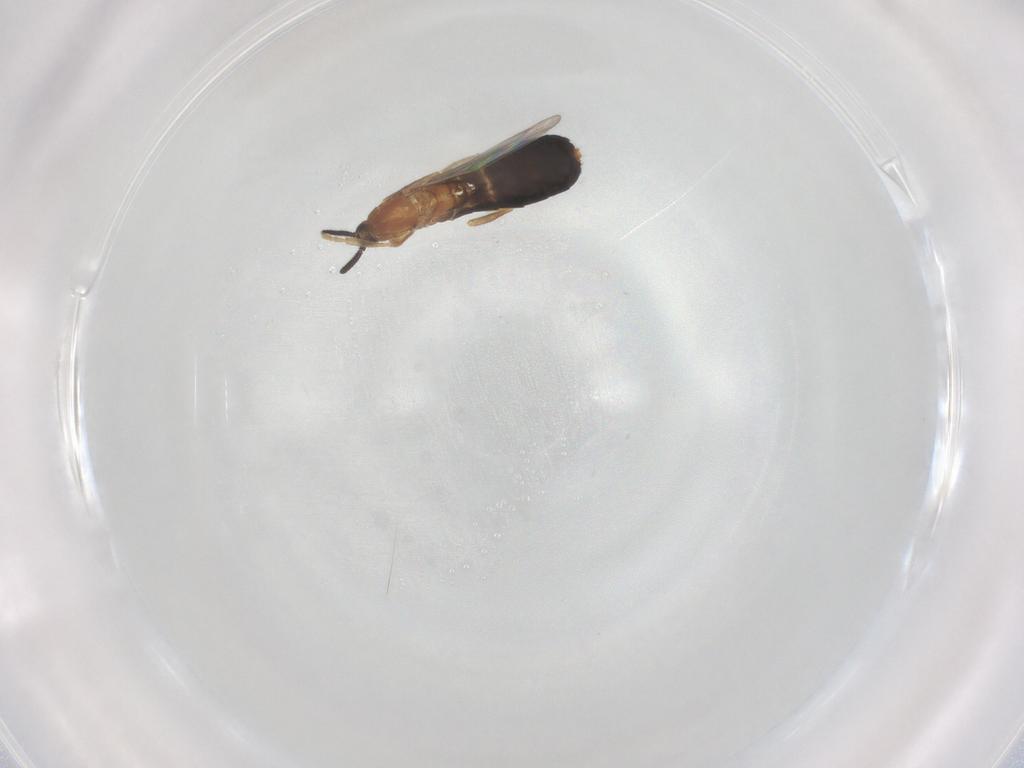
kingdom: Animalia
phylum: Arthropoda
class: Insecta
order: Diptera
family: Scatopsidae
